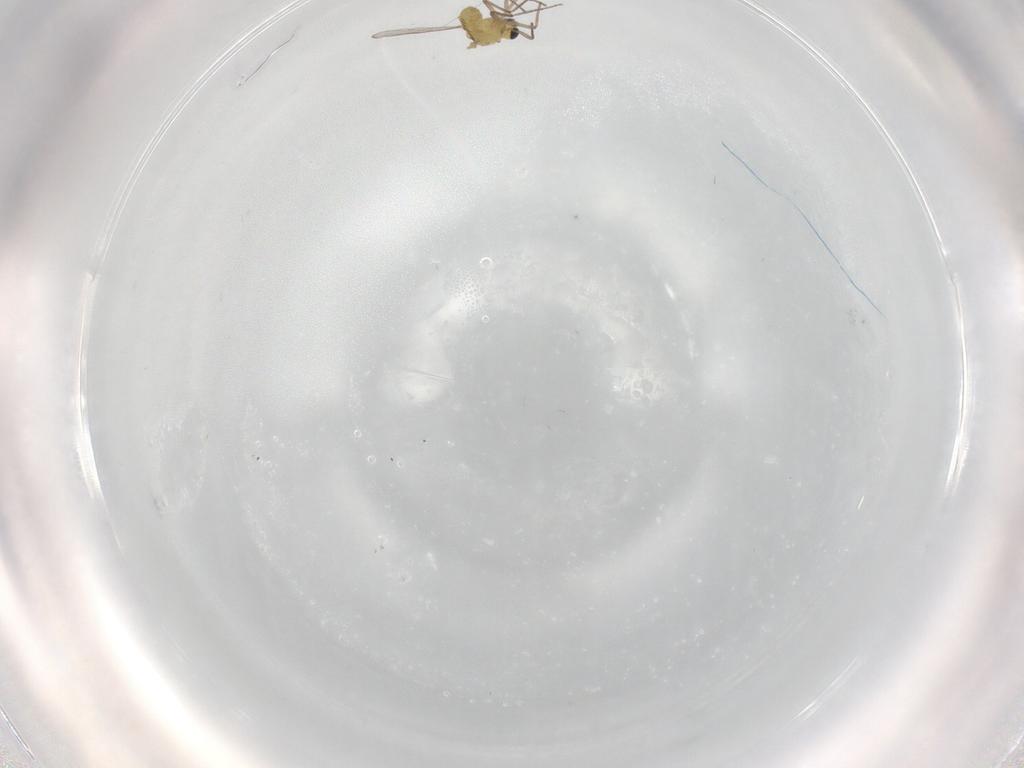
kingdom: Animalia
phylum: Arthropoda
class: Insecta
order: Diptera
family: Chironomidae
